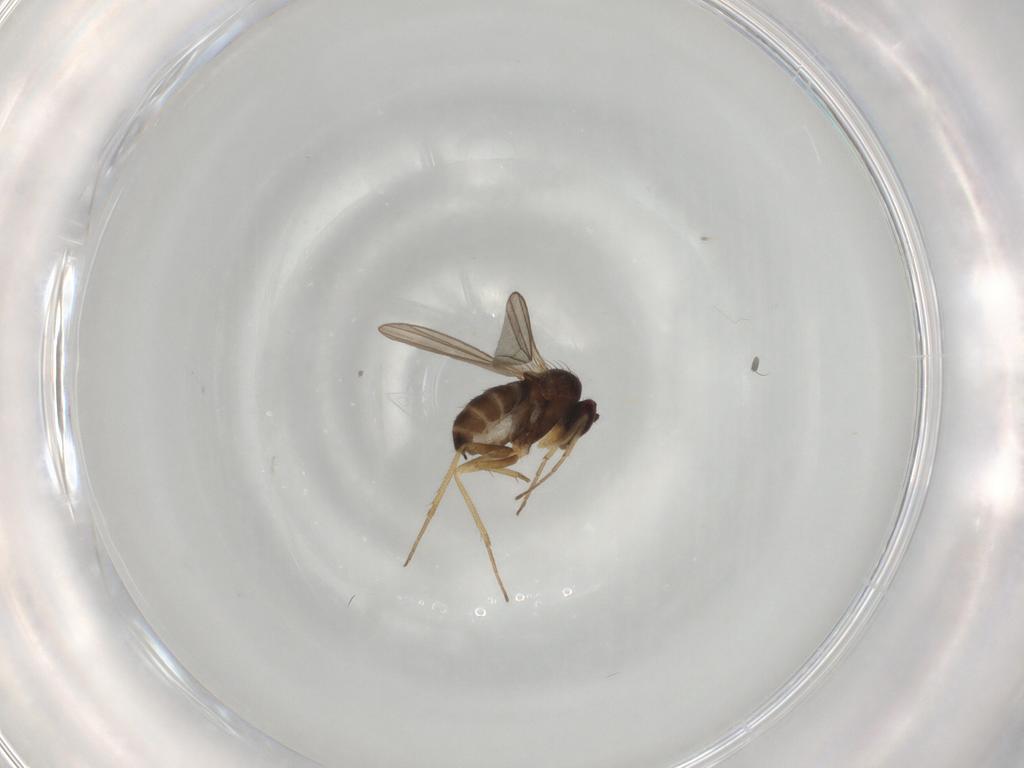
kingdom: Animalia
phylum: Arthropoda
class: Insecta
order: Diptera
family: Dolichopodidae
